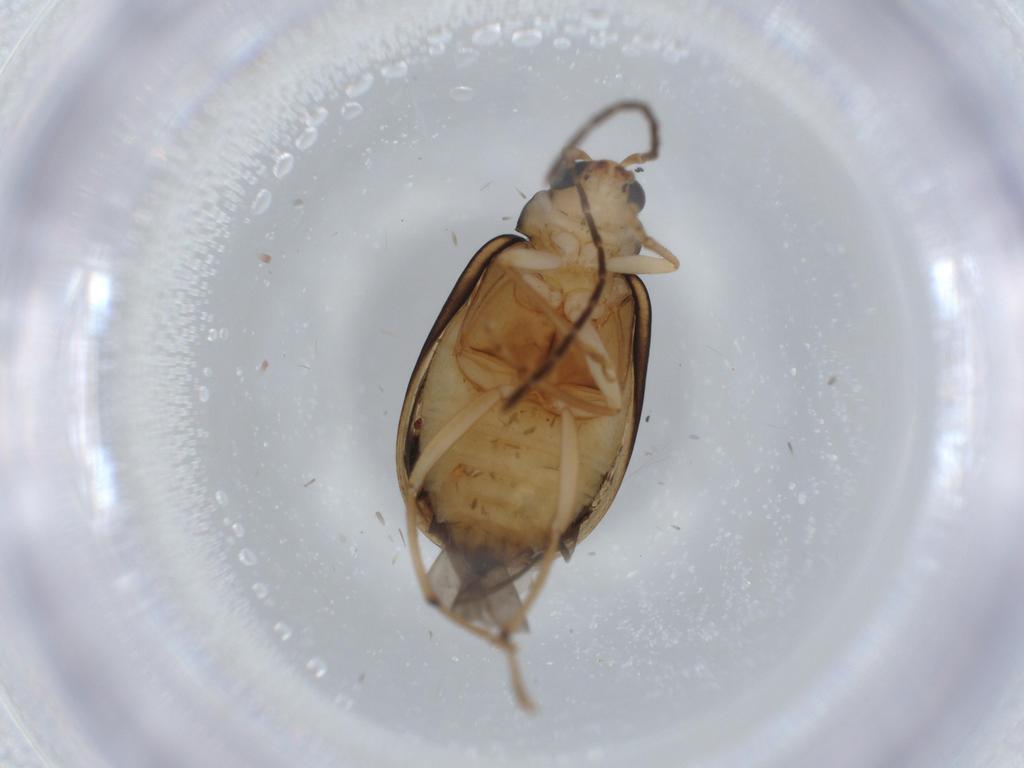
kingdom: Animalia
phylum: Arthropoda
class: Insecta
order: Coleoptera
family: Chrysomelidae
